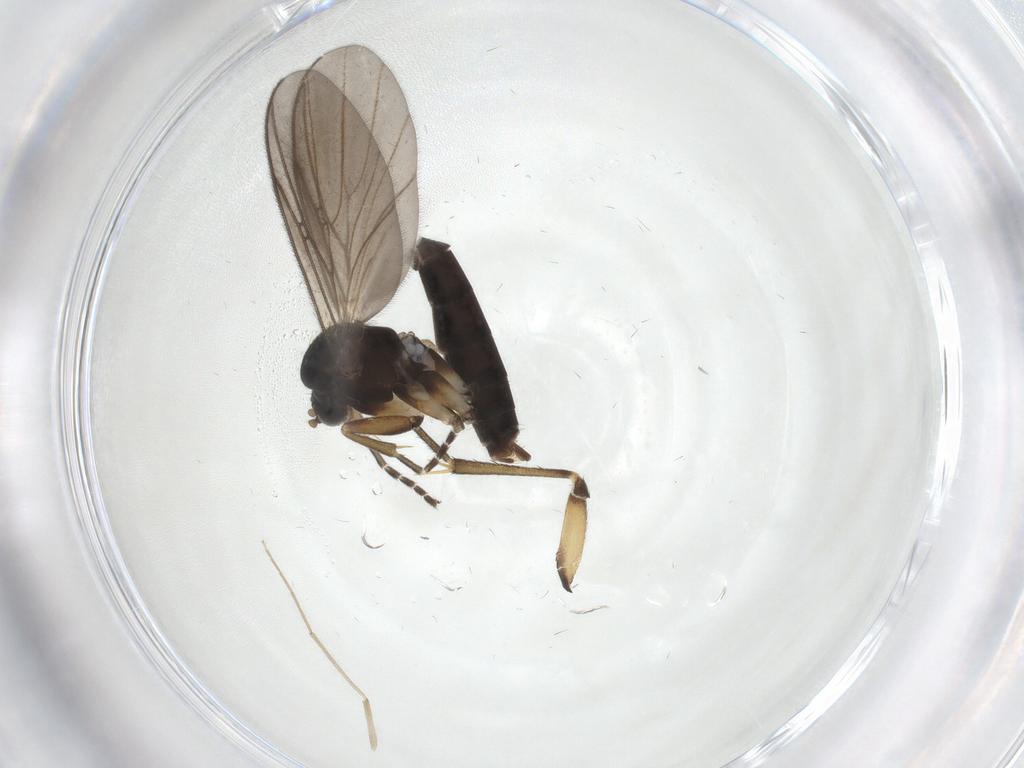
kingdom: Animalia
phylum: Arthropoda
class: Insecta
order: Diptera
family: Chironomidae
